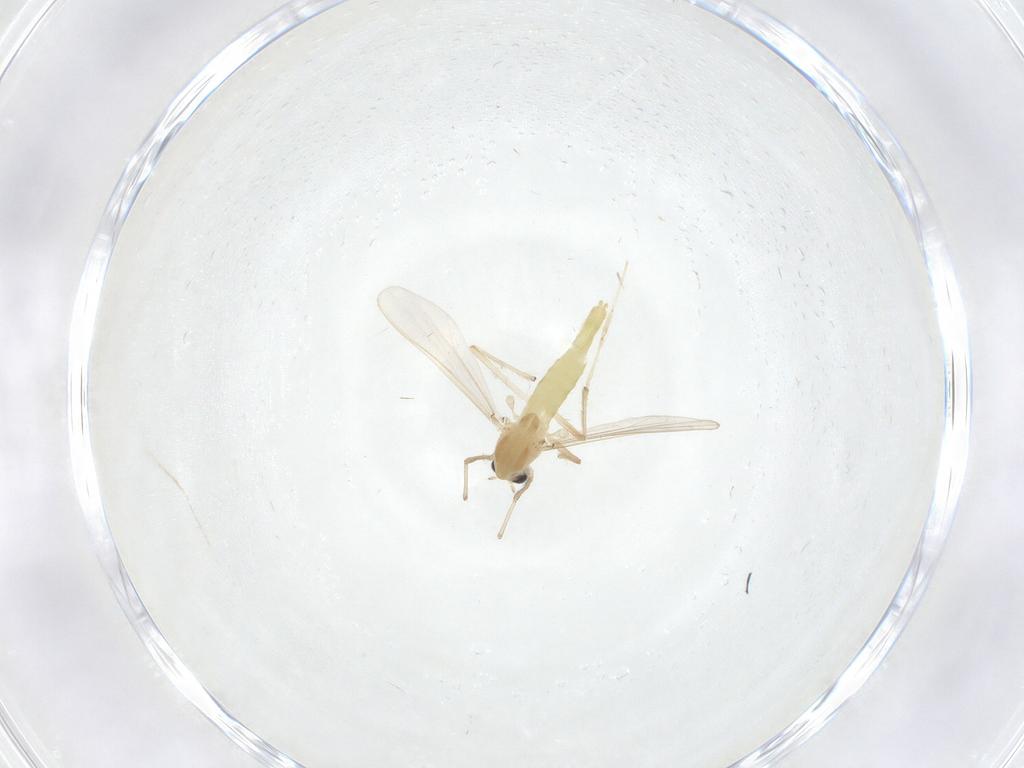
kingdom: Animalia
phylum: Arthropoda
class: Insecta
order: Diptera
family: Chironomidae
